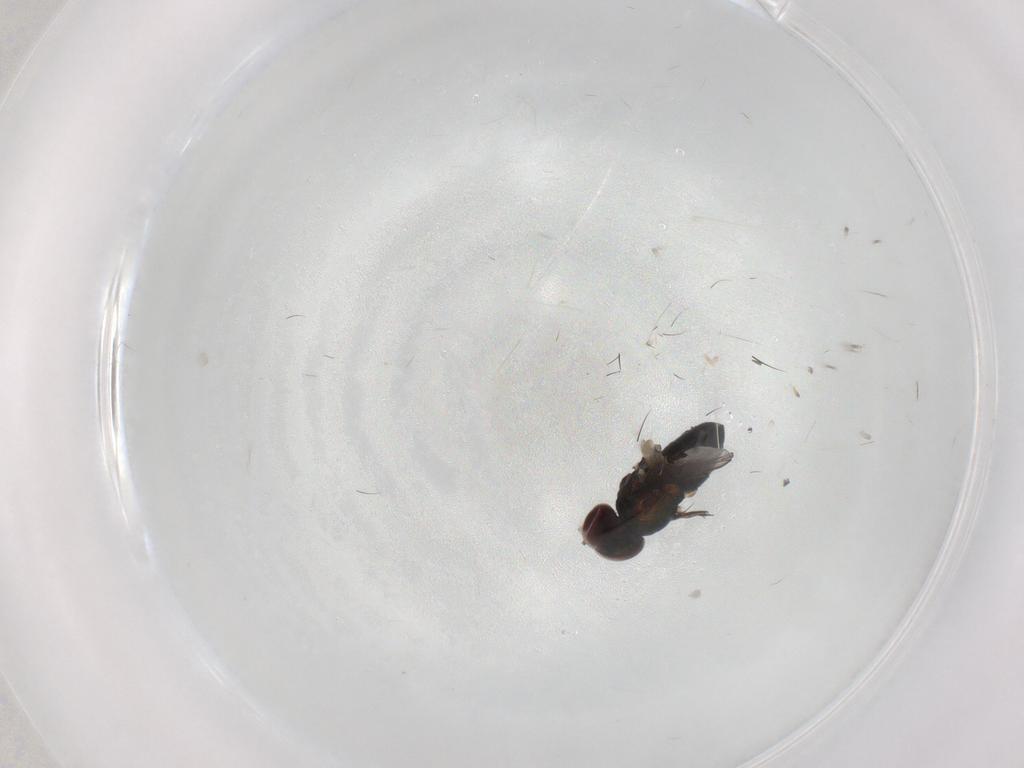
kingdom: Animalia
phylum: Arthropoda
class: Insecta
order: Diptera
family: Dolichopodidae
